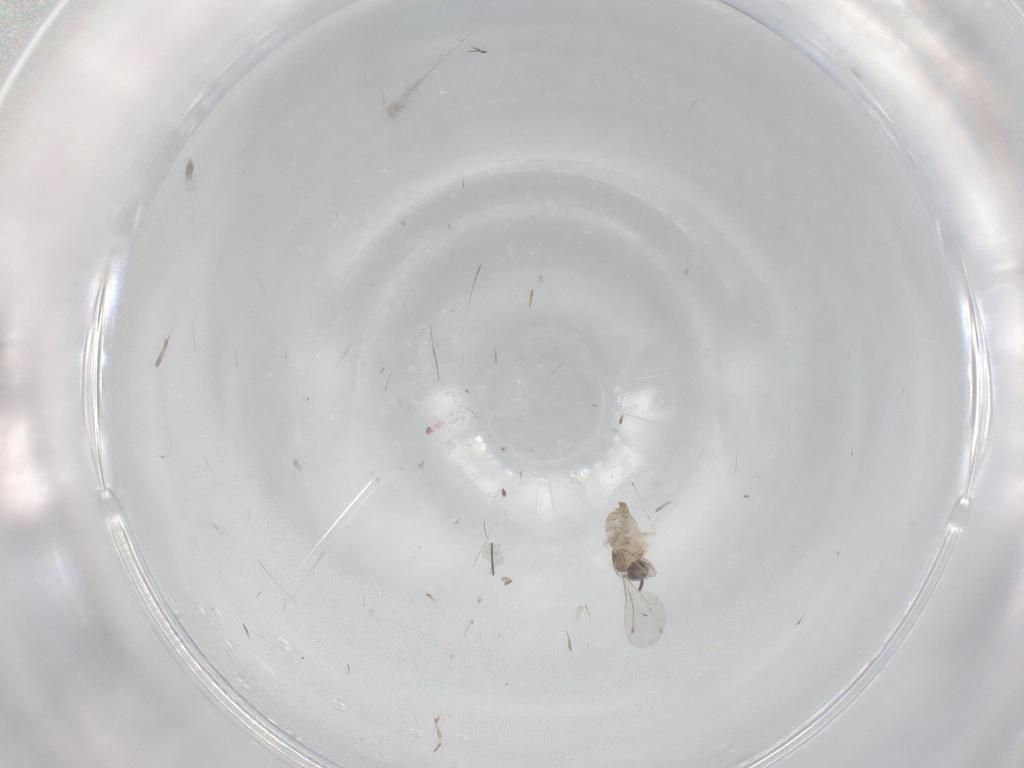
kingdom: Animalia
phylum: Arthropoda
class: Insecta
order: Diptera
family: Cecidomyiidae
